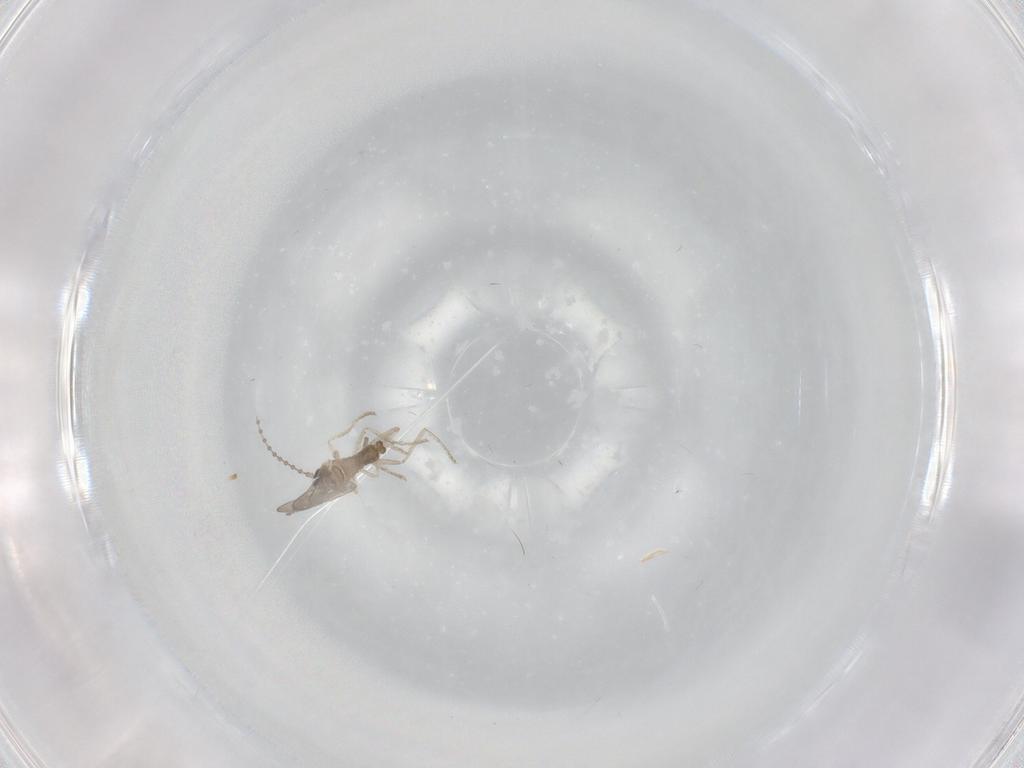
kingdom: Animalia
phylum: Arthropoda
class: Insecta
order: Diptera
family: Cecidomyiidae
